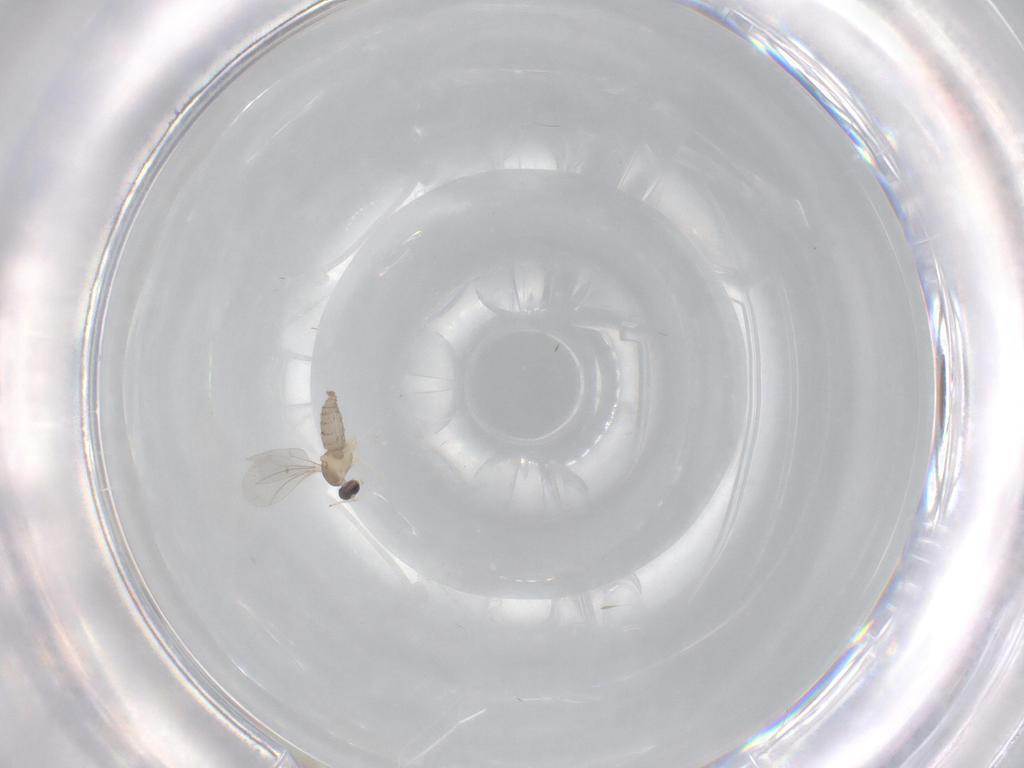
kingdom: Animalia
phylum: Arthropoda
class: Insecta
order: Diptera
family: Cecidomyiidae
